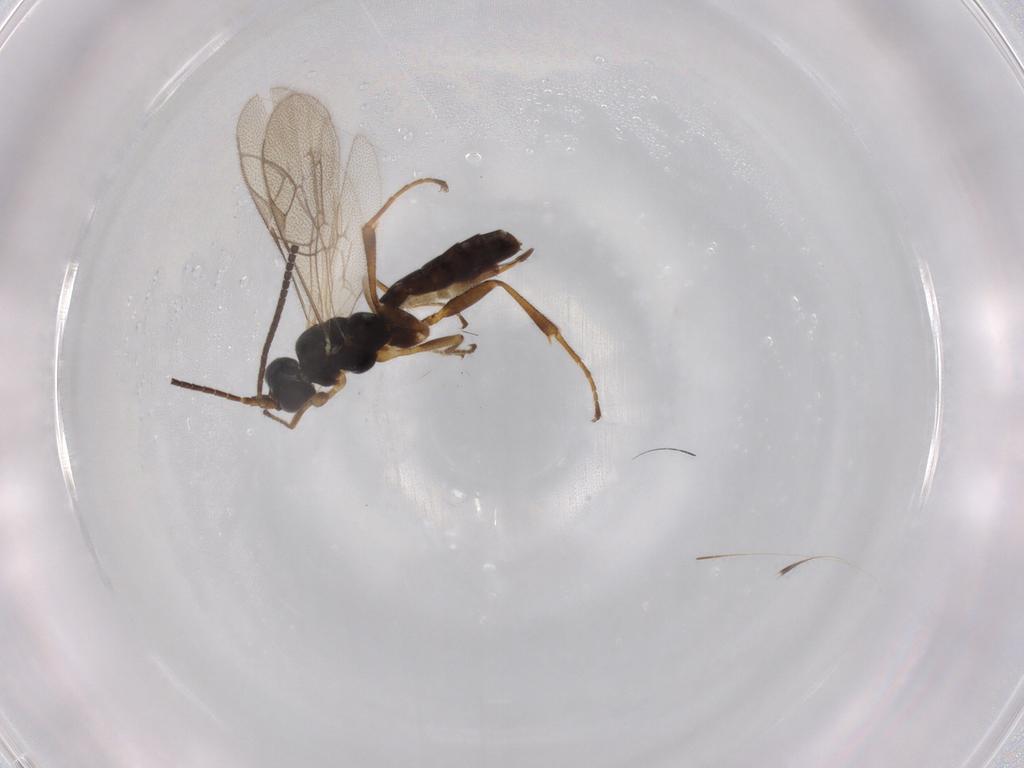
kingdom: Animalia
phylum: Arthropoda
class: Insecta
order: Hymenoptera
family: Ichneumonidae
